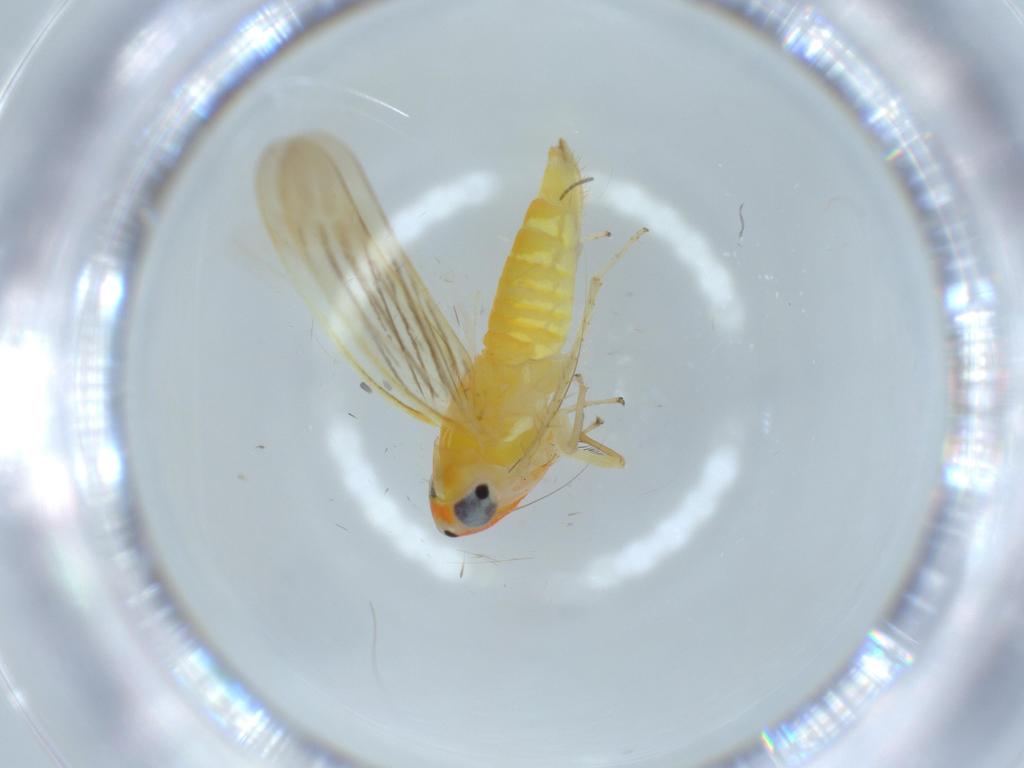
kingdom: Animalia
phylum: Arthropoda
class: Insecta
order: Hemiptera
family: Cicadellidae
